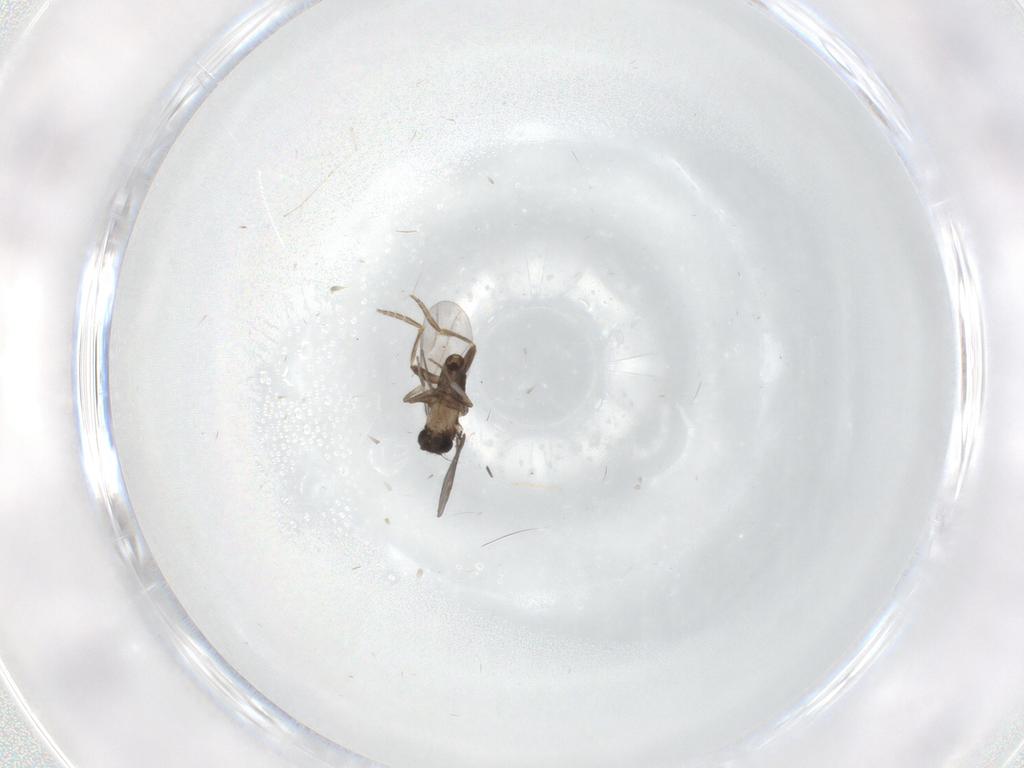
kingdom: Animalia
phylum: Arthropoda
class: Insecta
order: Diptera
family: Cecidomyiidae
